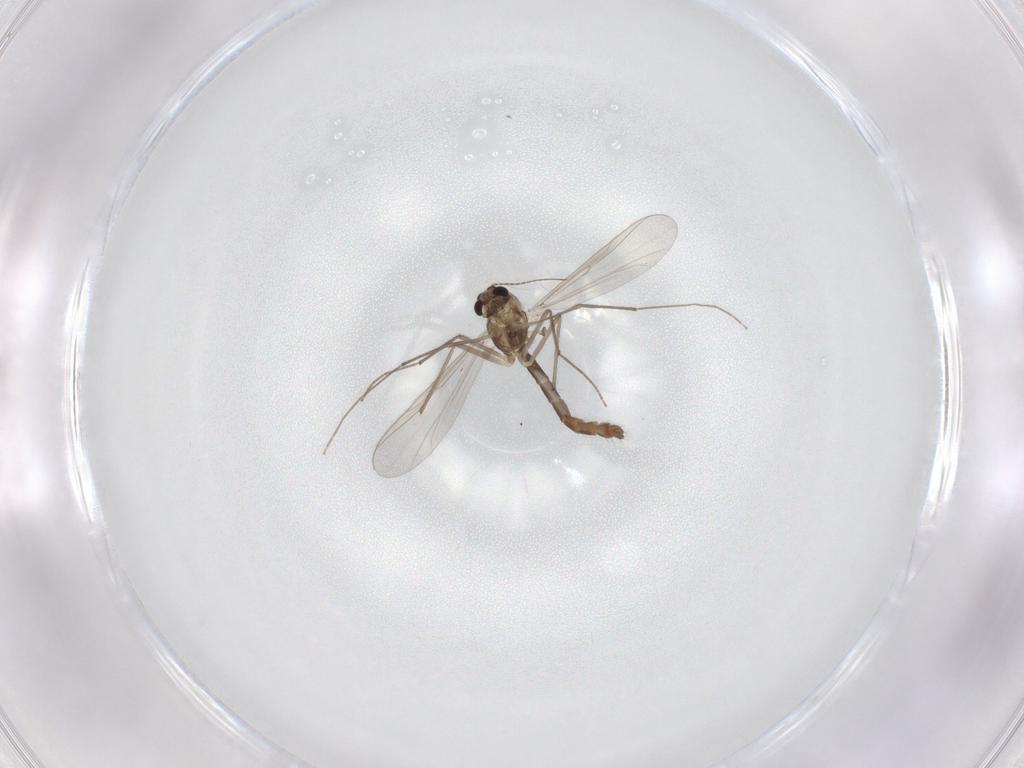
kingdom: Animalia
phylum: Arthropoda
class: Insecta
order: Diptera
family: Chironomidae
